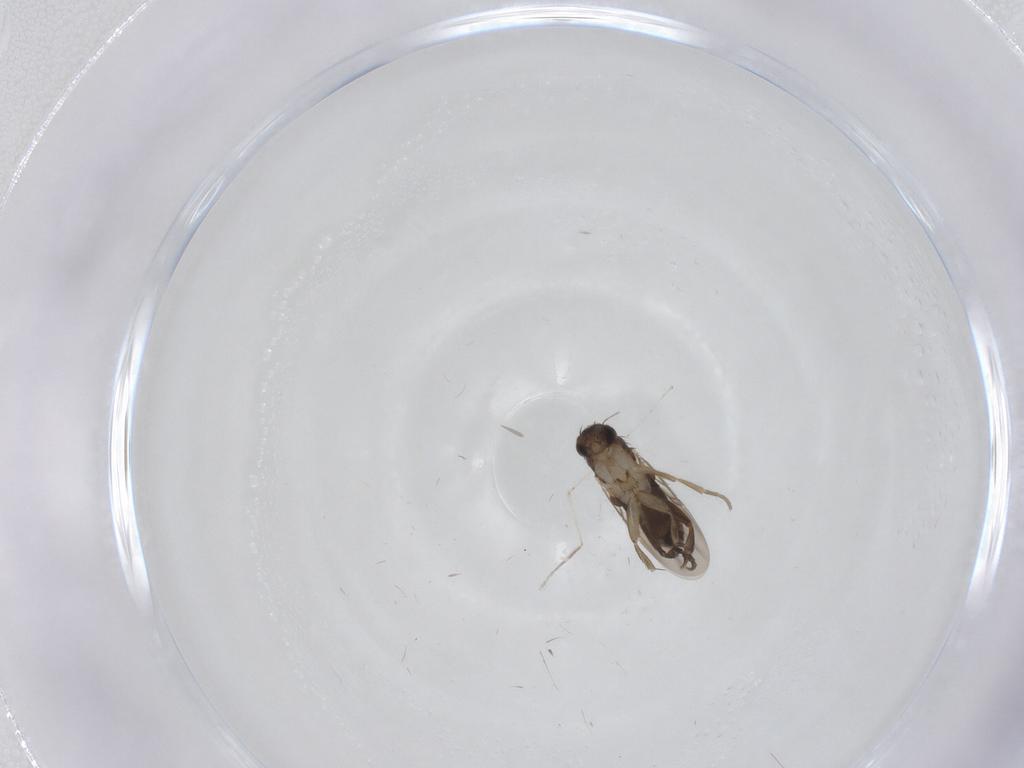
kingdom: Animalia
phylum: Arthropoda
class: Insecta
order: Diptera
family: Phoridae
